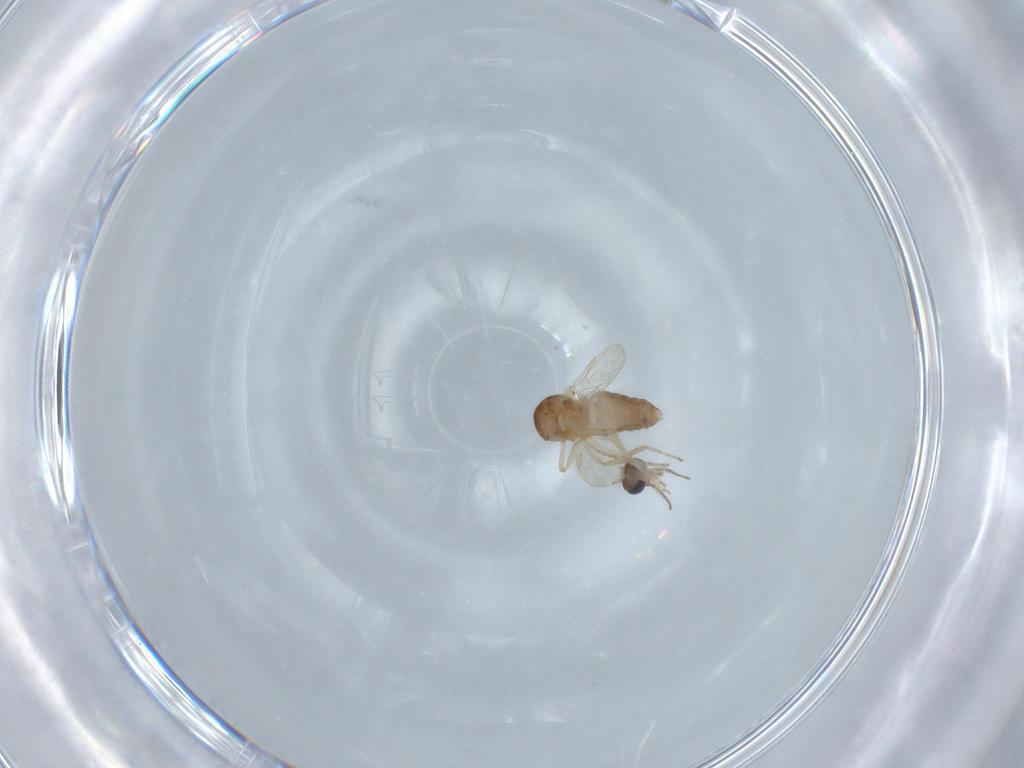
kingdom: Animalia
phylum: Arthropoda
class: Insecta
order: Diptera
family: Ceratopogonidae
